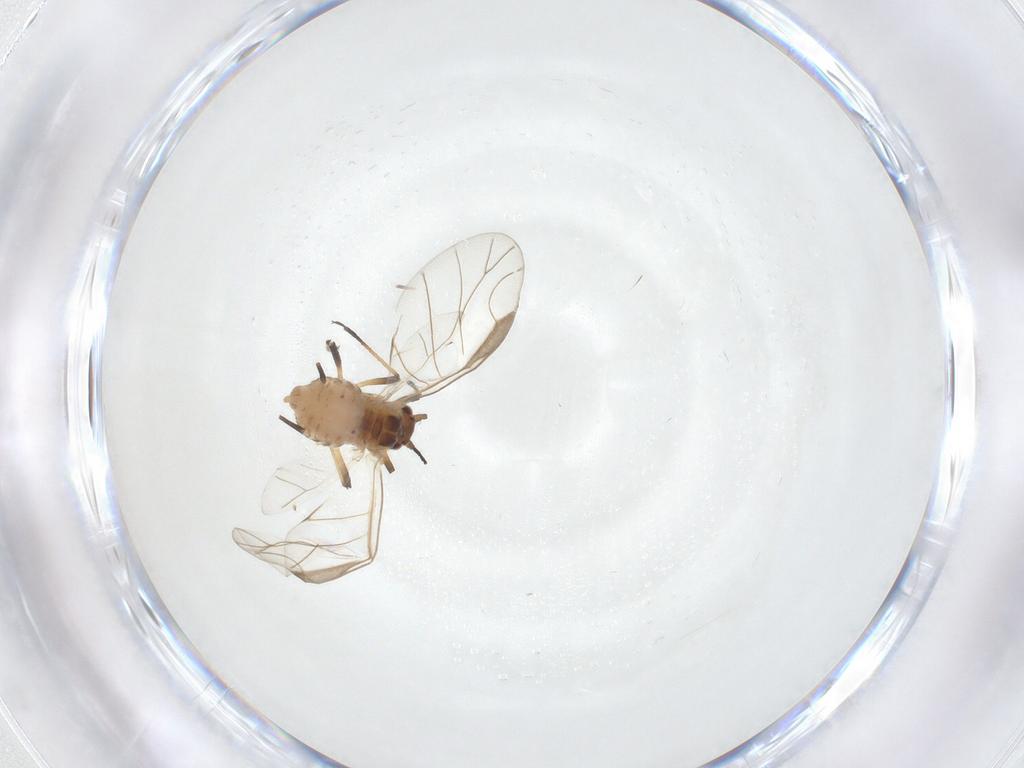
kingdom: Animalia
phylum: Arthropoda
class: Insecta
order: Hemiptera
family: Aphididae
